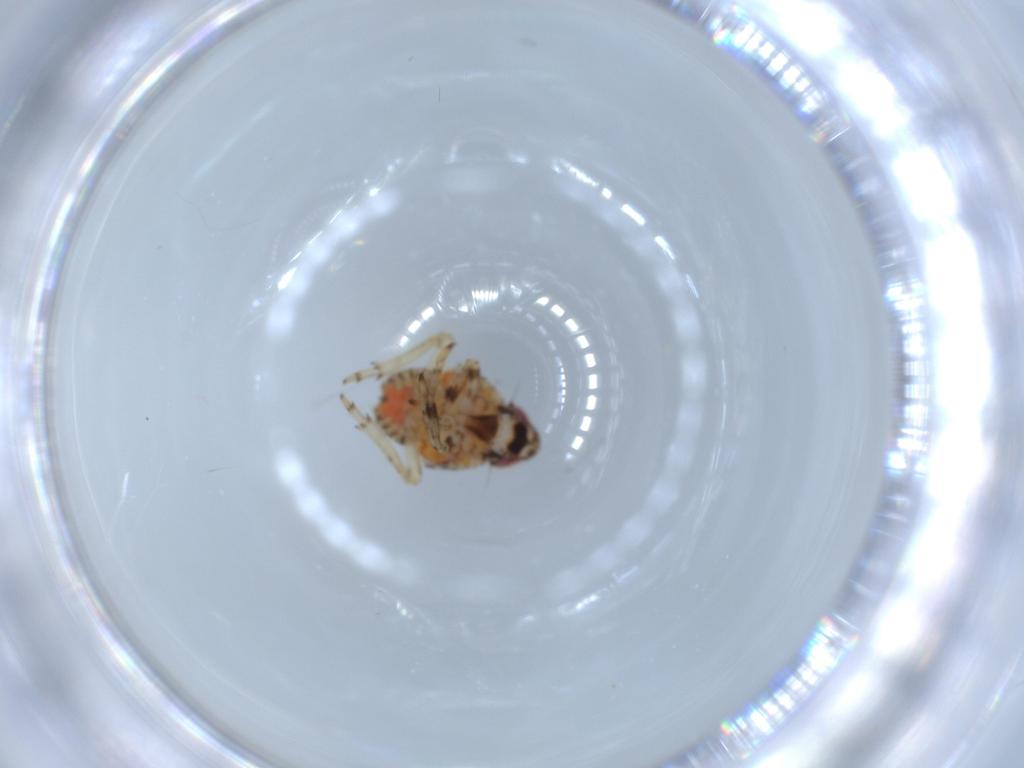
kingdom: Animalia
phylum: Arthropoda
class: Insecta
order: Hemiptera
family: Issidae
